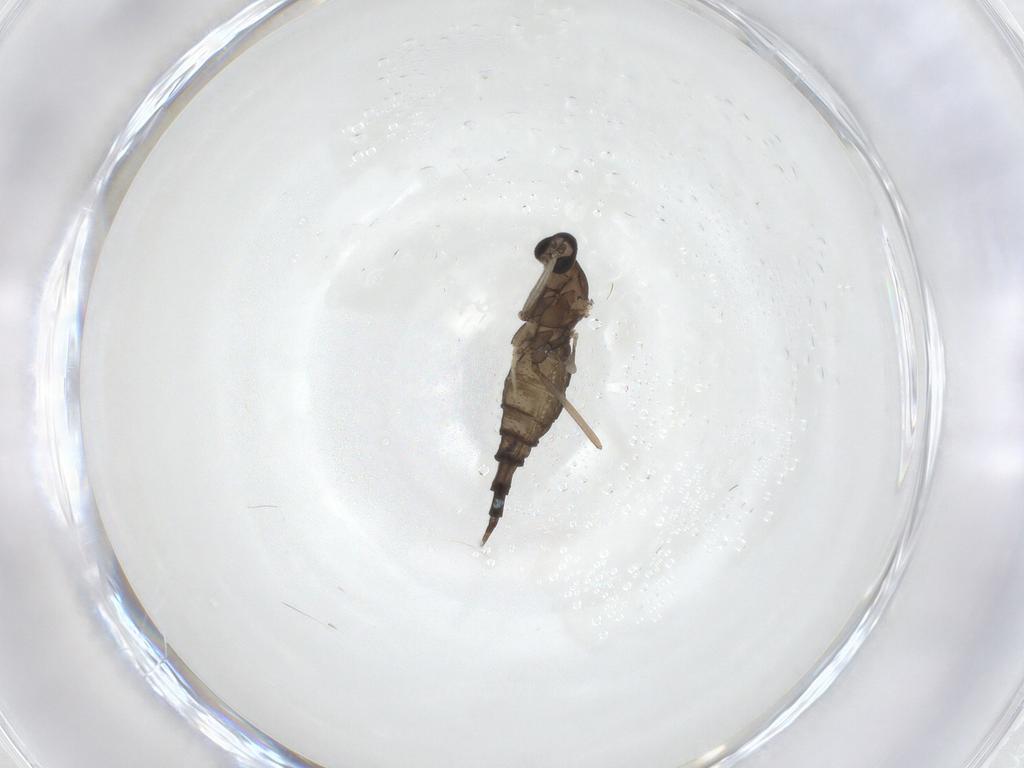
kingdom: Animalia
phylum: Arthropoda
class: Insecta
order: Diptera
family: Cecidomyiidae
